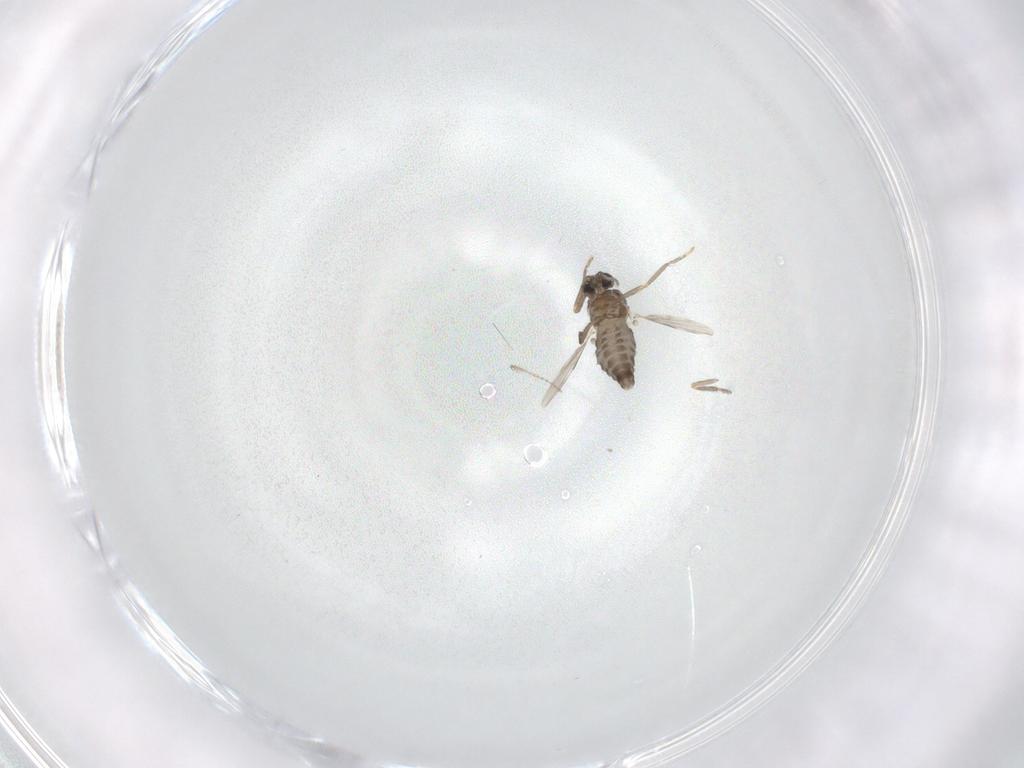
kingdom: Animalia
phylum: Arthropoda
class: Insecta
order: Diptera
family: Ceratopogonidae
